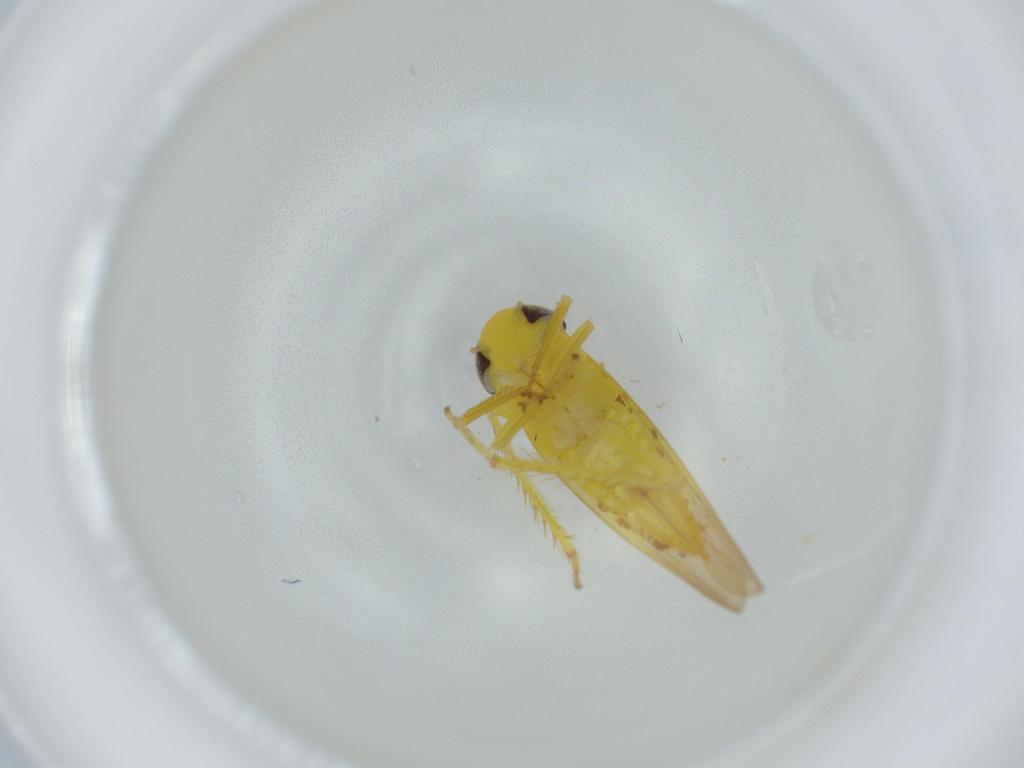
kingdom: Animalia
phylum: Arthropoda
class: Insecta
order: Hemiptera
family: Cicadellidae
